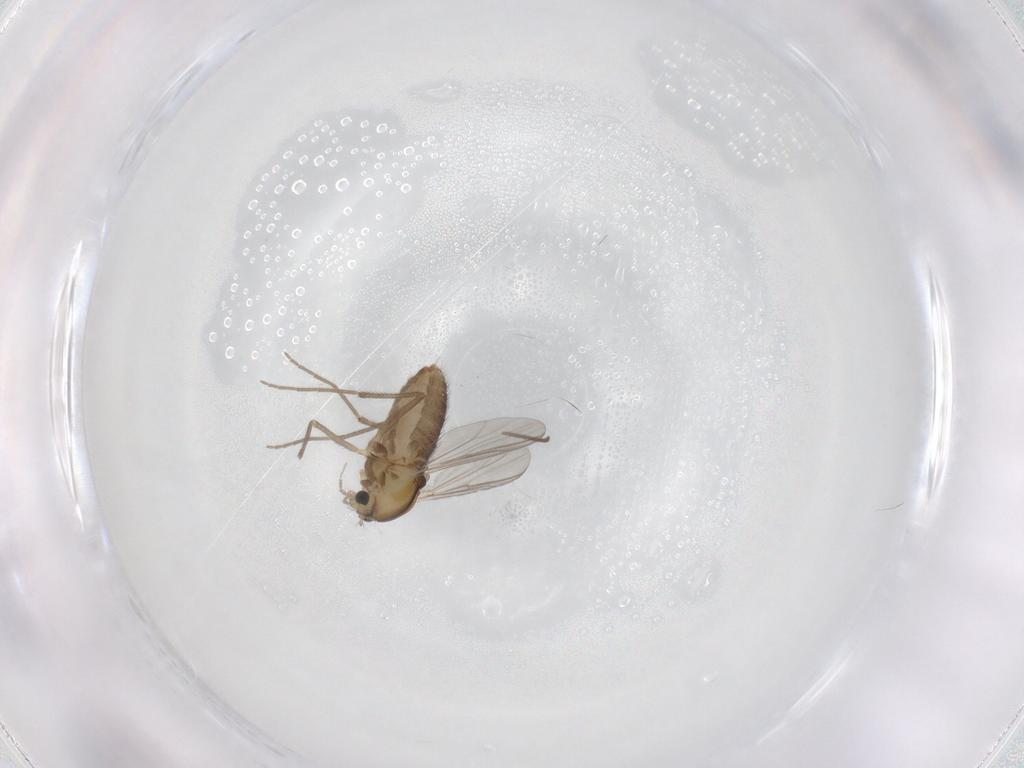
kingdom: Animalia
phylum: Arthropoda
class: Insecta
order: Diptera
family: Chironomidae
